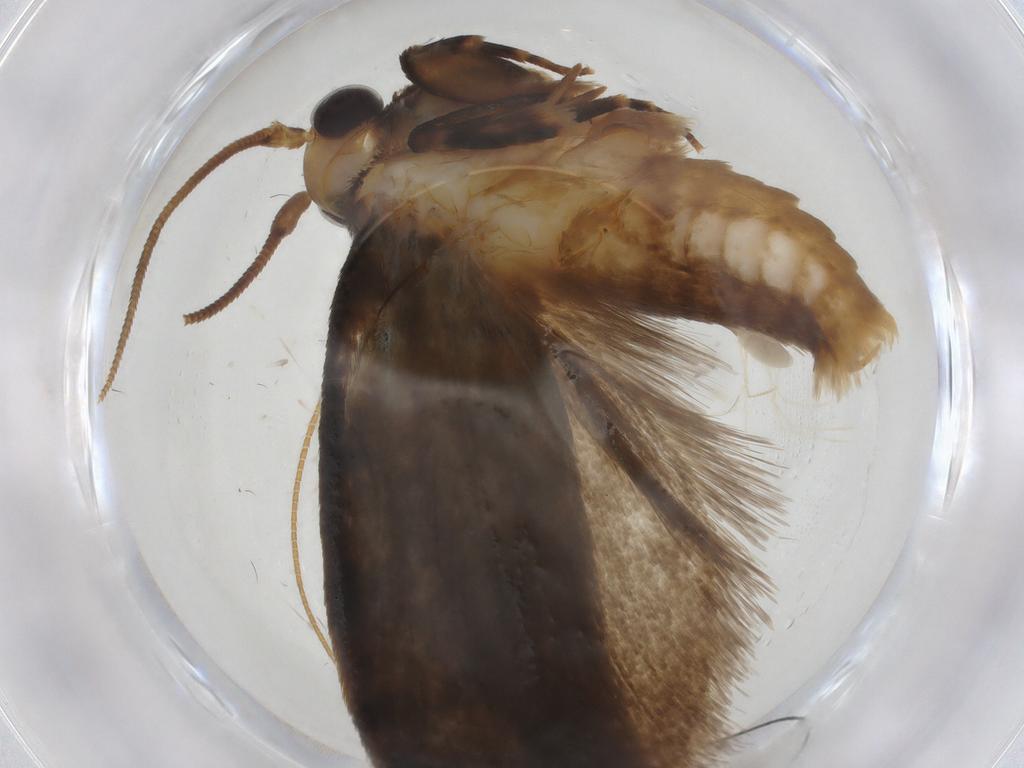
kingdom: Animalia
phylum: Arthropoda
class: Insecta
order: Lepidoptera
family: Nepticulidae
